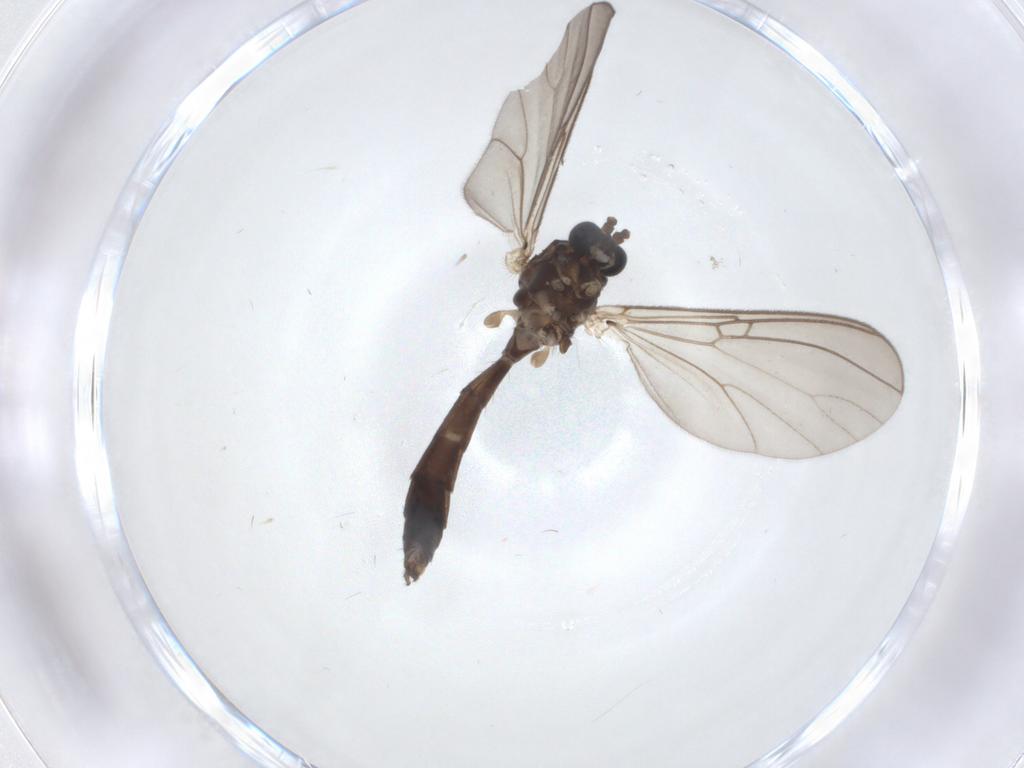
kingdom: Animalia
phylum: Arthropoda
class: Insecta
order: Diptera
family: Mycetophilidae
